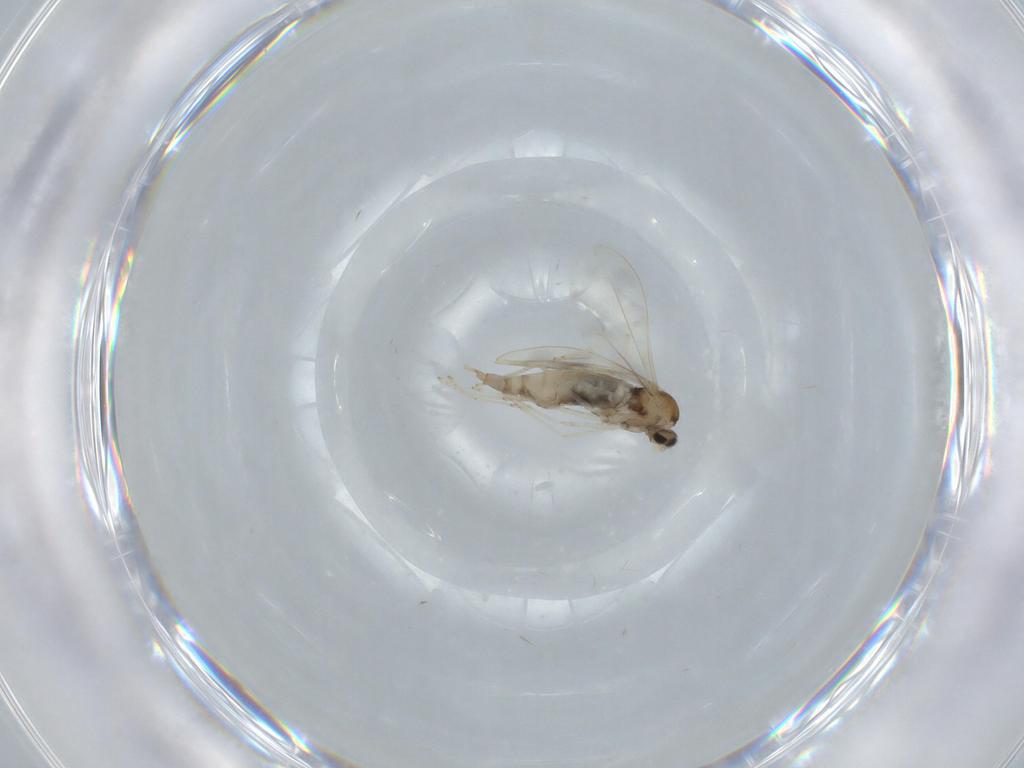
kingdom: Animalia
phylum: Arthropoda
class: Insecta
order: Diptera
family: Cecidomyiidae
